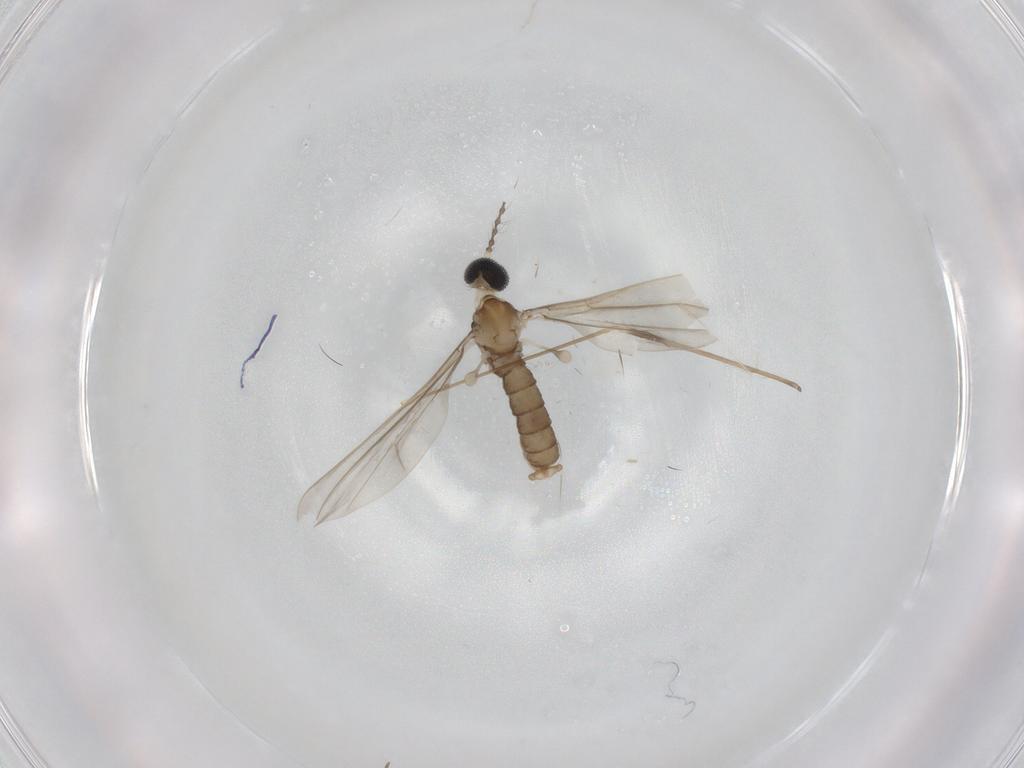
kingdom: Animalia
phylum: Arthropoda
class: Insecta
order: Diptera
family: Cecidomyiidae
